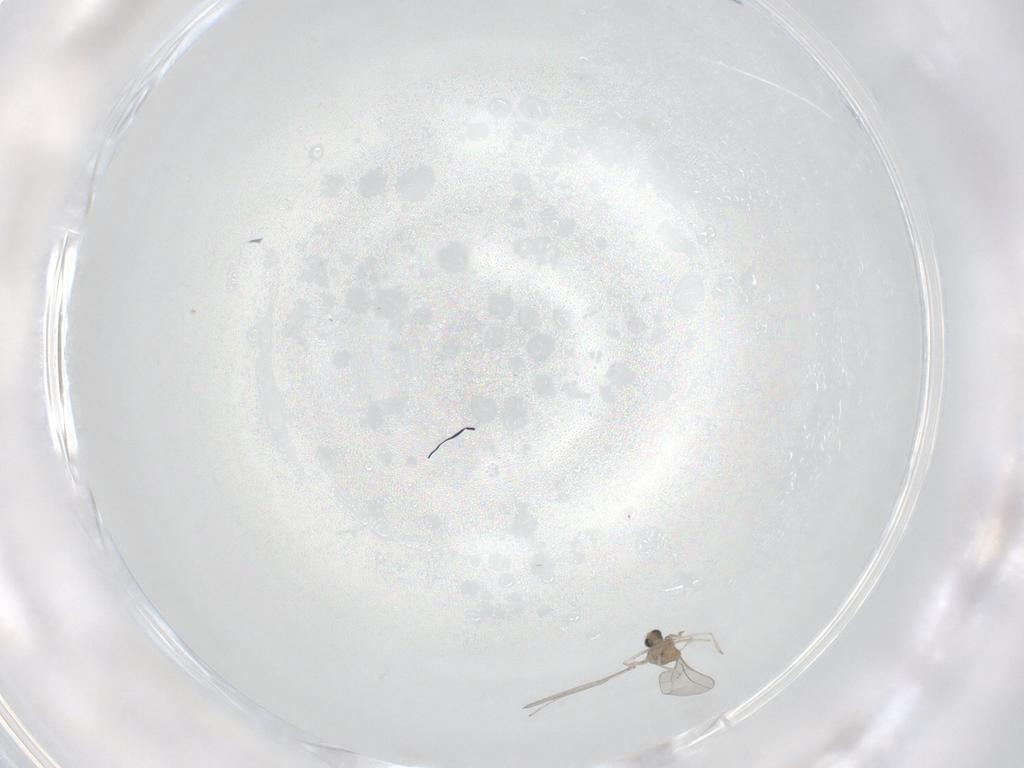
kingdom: Animalia
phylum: Arthropoda
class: Insecta
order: Diptera
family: Sciaridae
